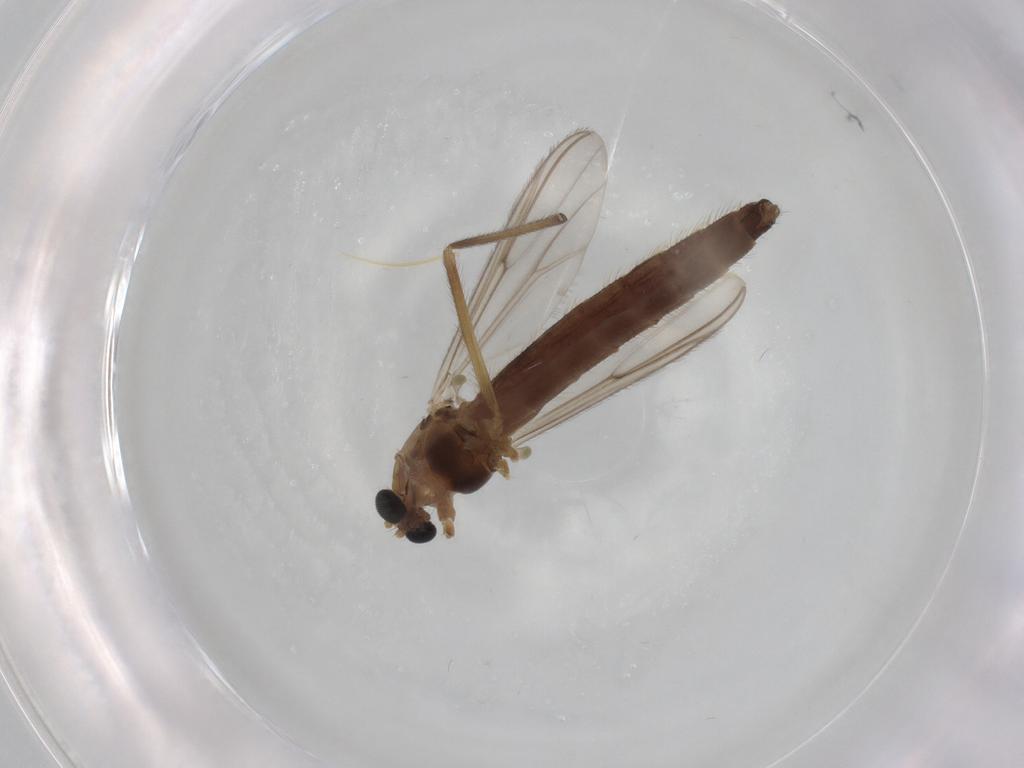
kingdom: Animalia
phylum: Arthropoda
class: Insecta
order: Diptera
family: Chironomidae
